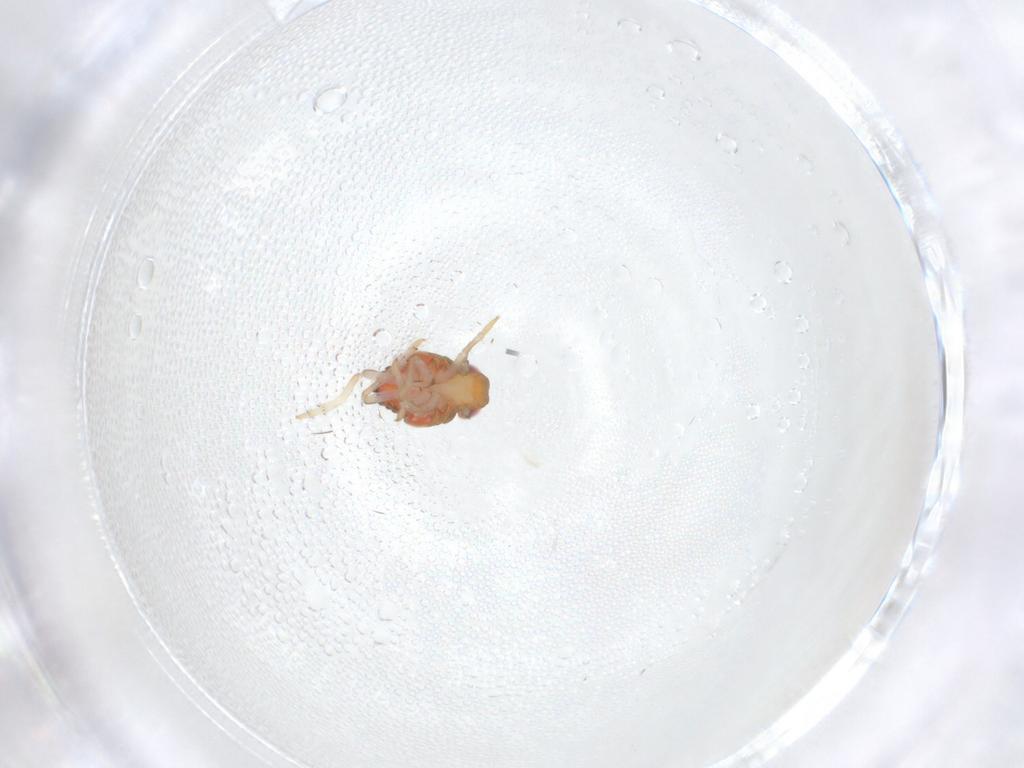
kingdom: Animalia
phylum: Arthropoda
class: Insecta
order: Hemiptera
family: Issidae
